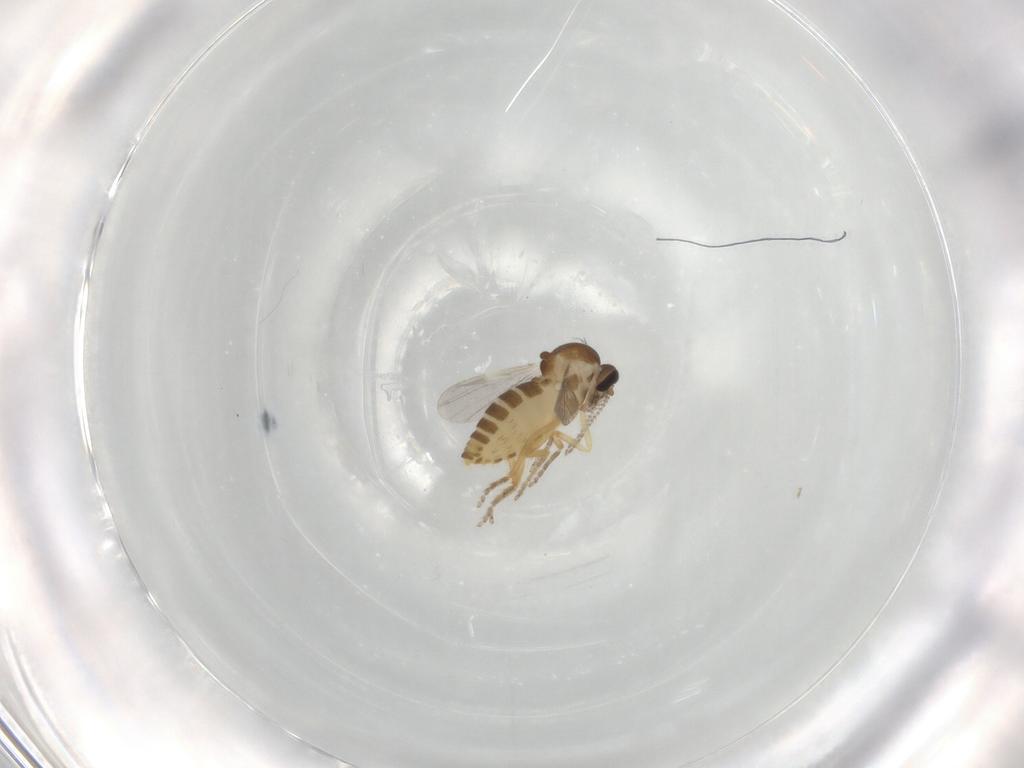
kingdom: Animalia
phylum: Arthropoda
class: Insecta
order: Diptera
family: Ceratopogonidae
